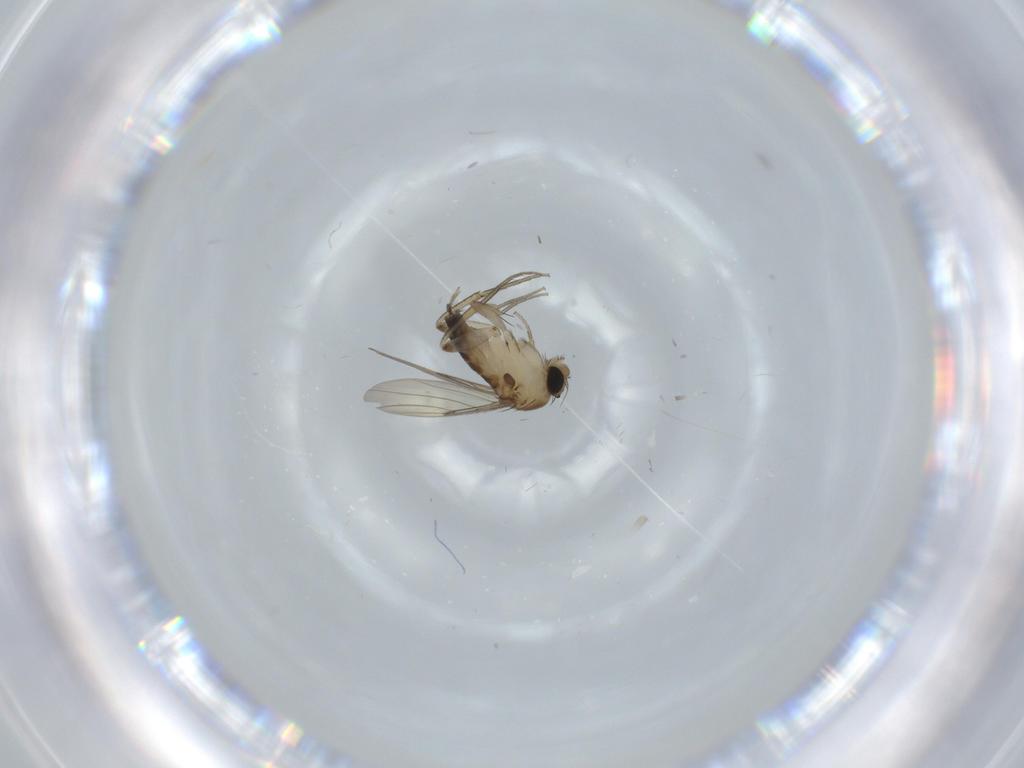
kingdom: Animalia
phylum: Arthropoda
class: Insecta
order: Diptera
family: Phoridae
